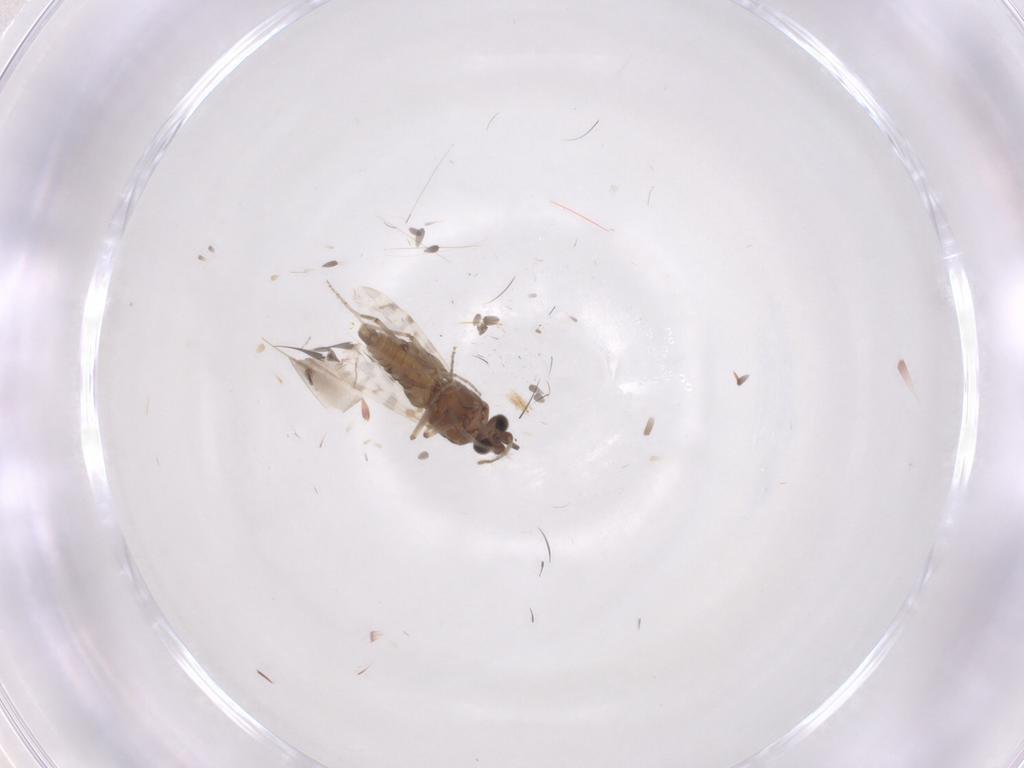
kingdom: Animalia
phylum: Arthropoda
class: Insecta
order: Diptera
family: Chironomidae
